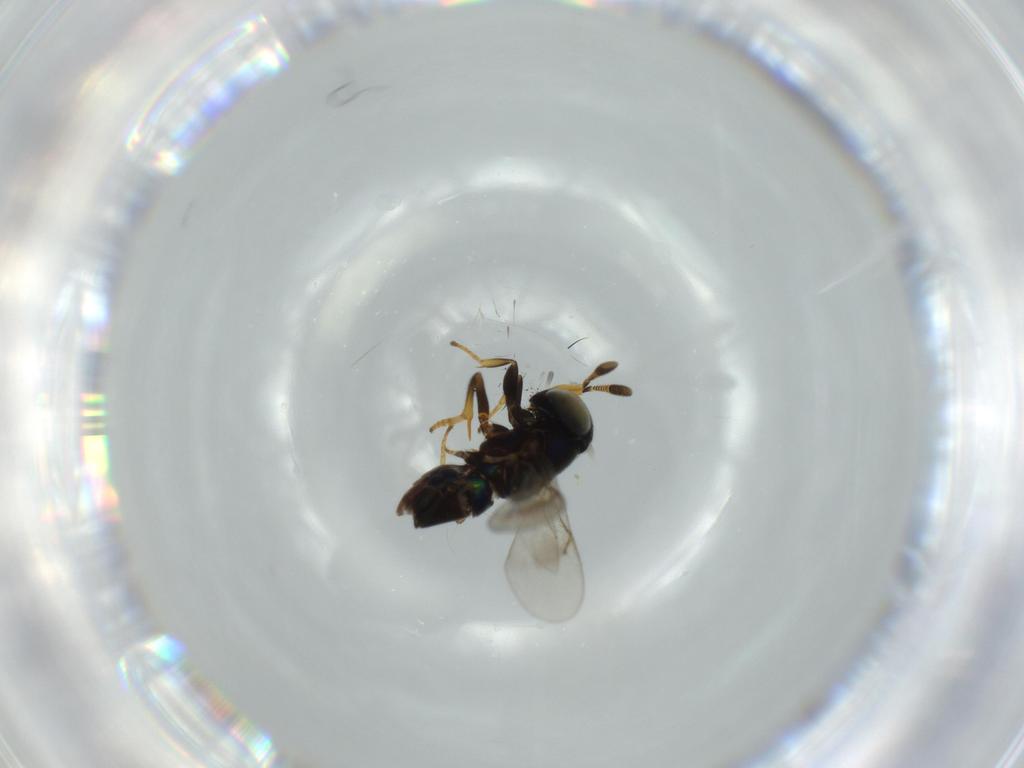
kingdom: Animalia
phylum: Arthropoda
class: Insecta
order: Hymenoptera
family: Encyrtidae
